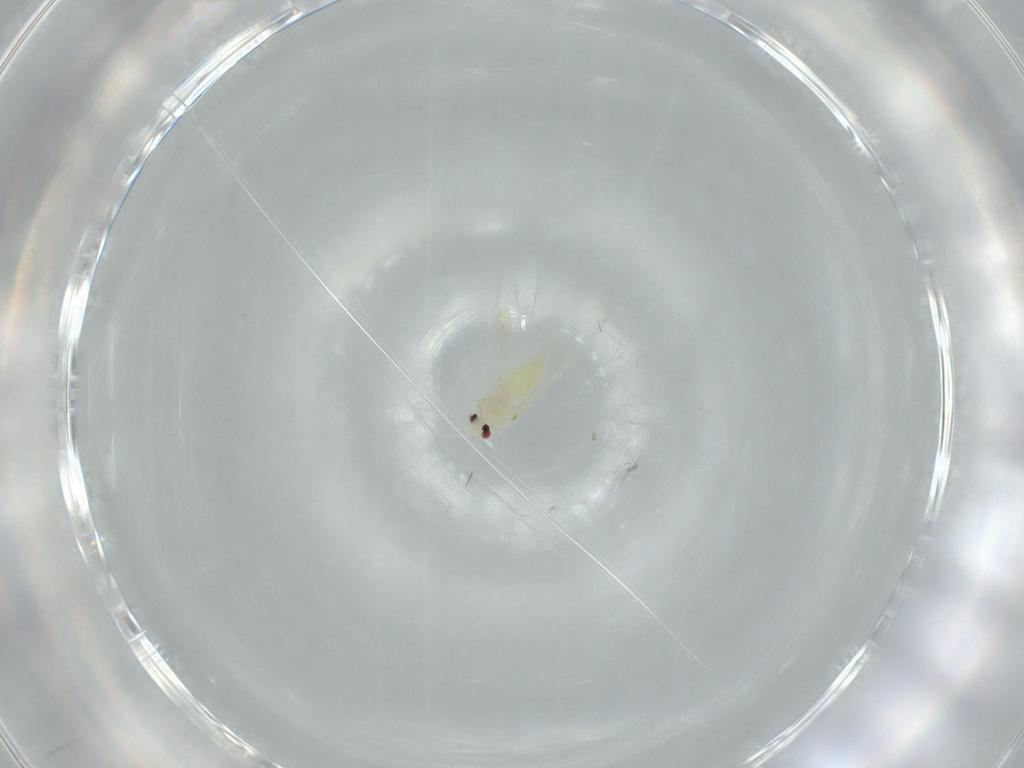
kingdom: Animalia
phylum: Arthropoda
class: Insecta
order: Hemiptera
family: Aleyrodidae
